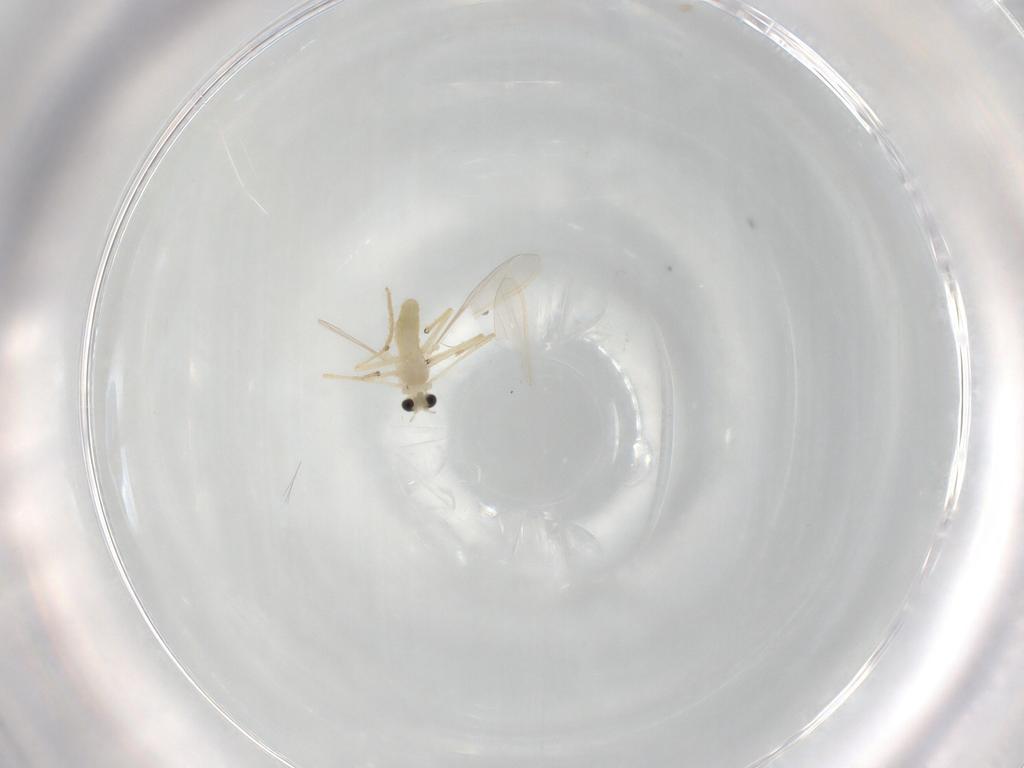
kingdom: Animalia
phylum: Arthropoda
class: Insecta
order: Diptera
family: Chironomidae
